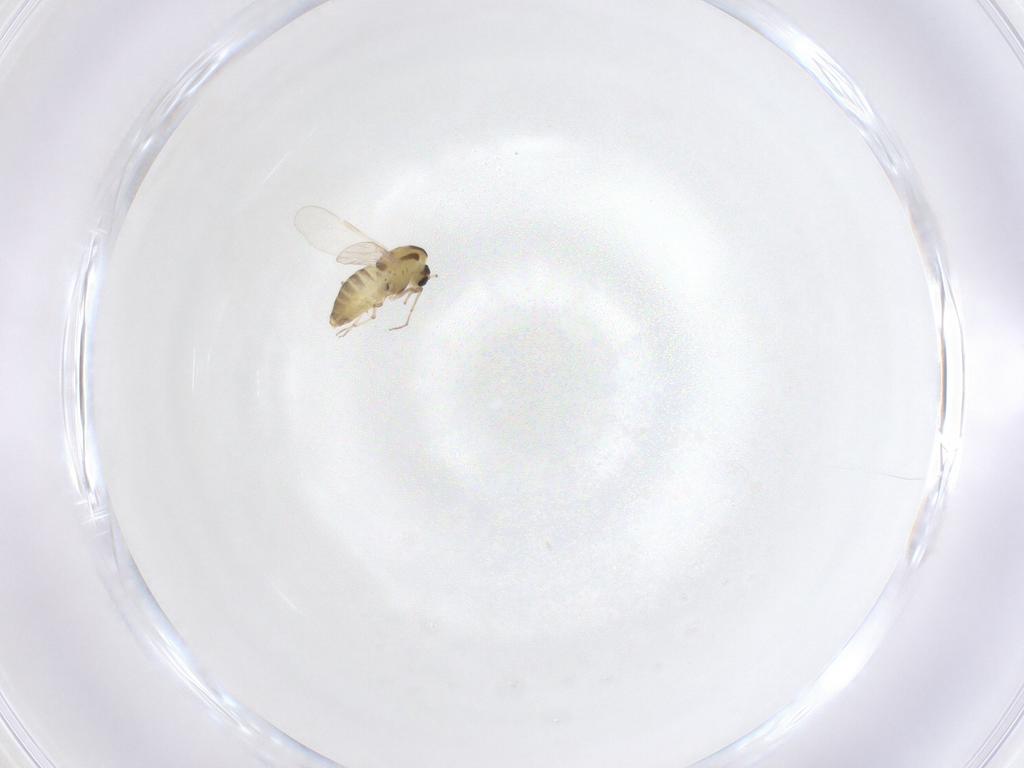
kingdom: Animalia
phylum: Arthropoda
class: Insecta
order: Diptera
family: Chironomidae
